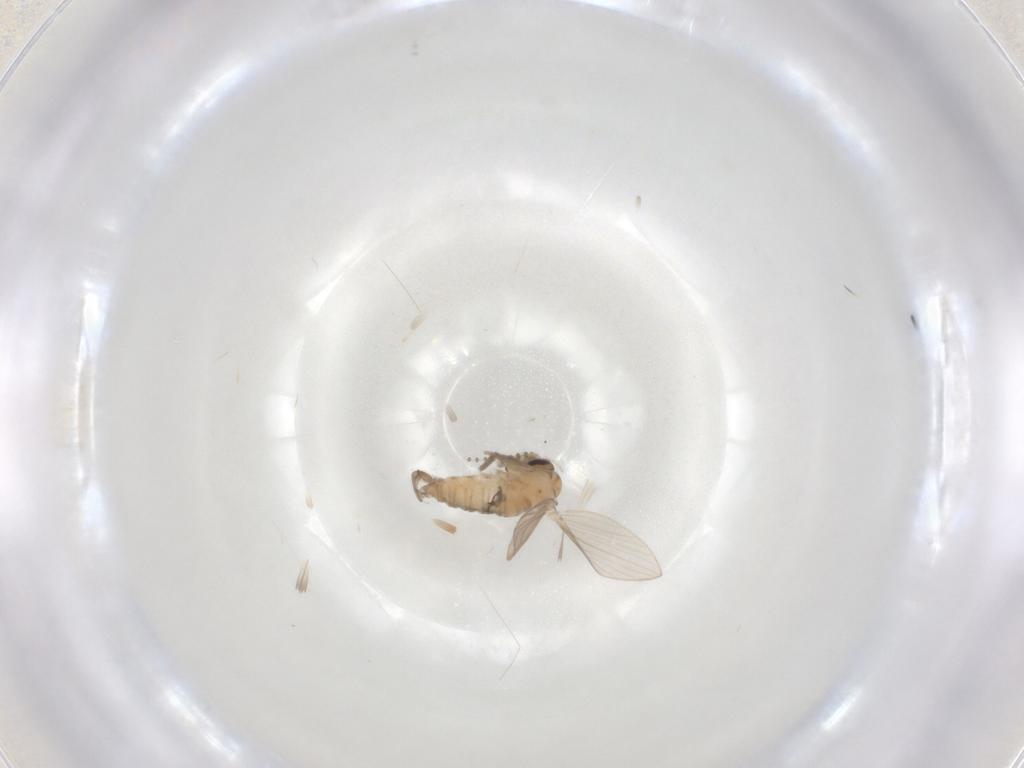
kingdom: Animalia
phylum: Arthropoda
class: Insecta
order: Diptera
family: Psychodidae
